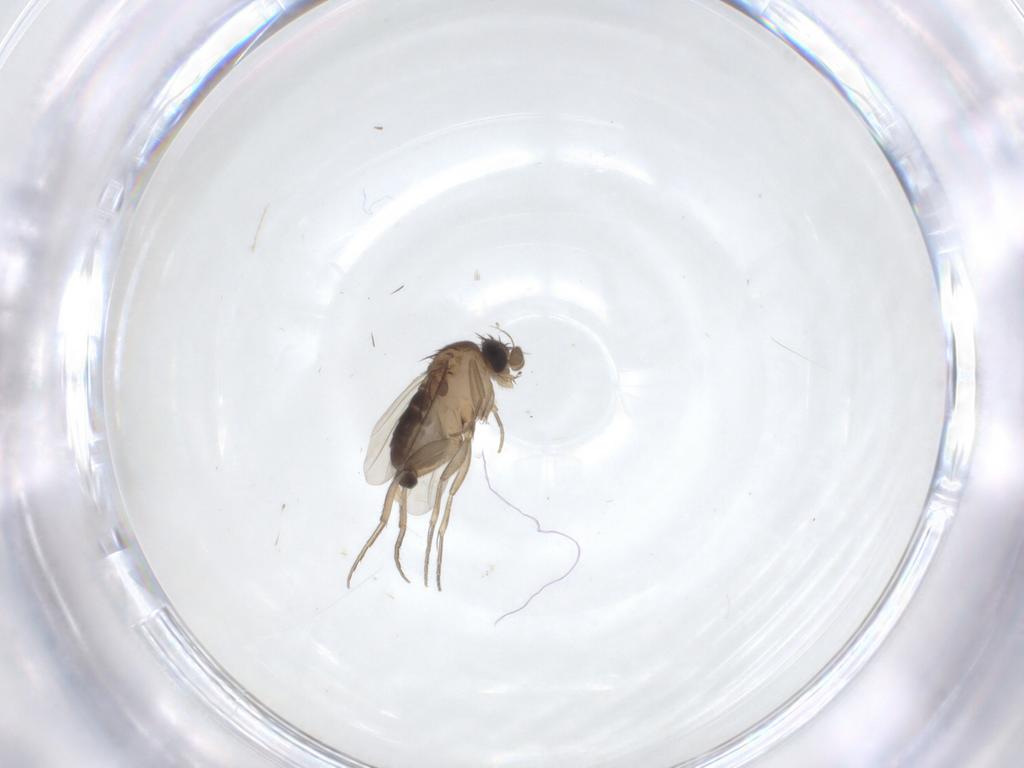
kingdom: Animalia
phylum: Arthropoda
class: Insecta
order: Diptera
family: Phoridae
